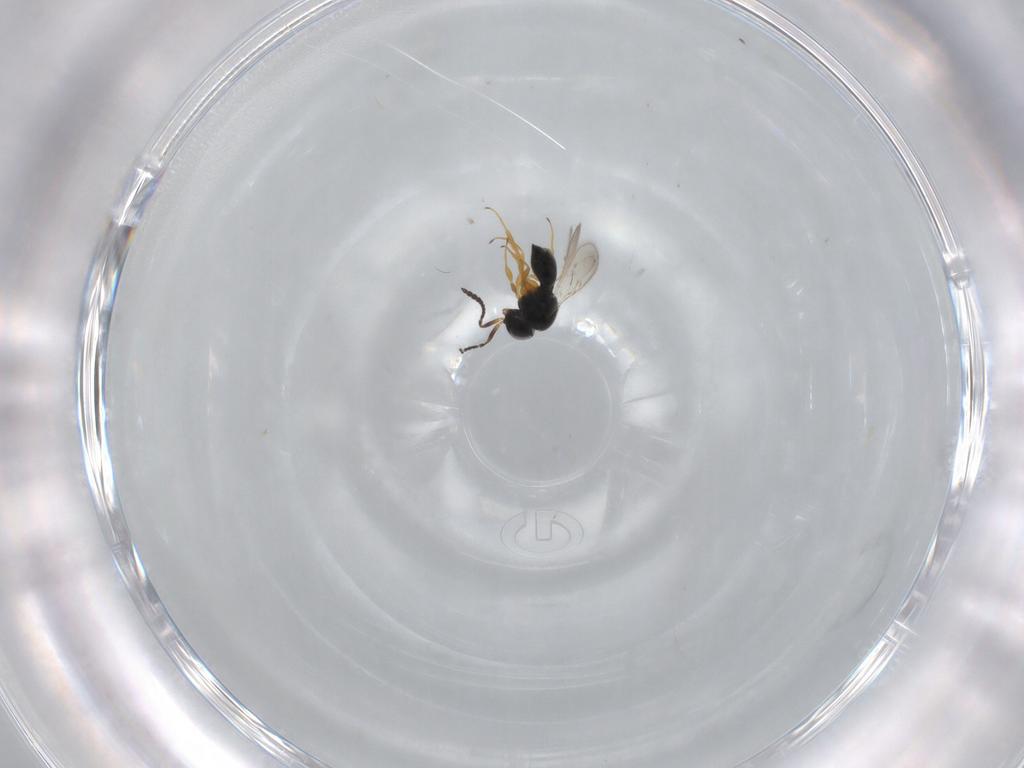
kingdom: Animalia
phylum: Arthropoda
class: Insecta
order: Hymenoptera
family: Scelionidae
